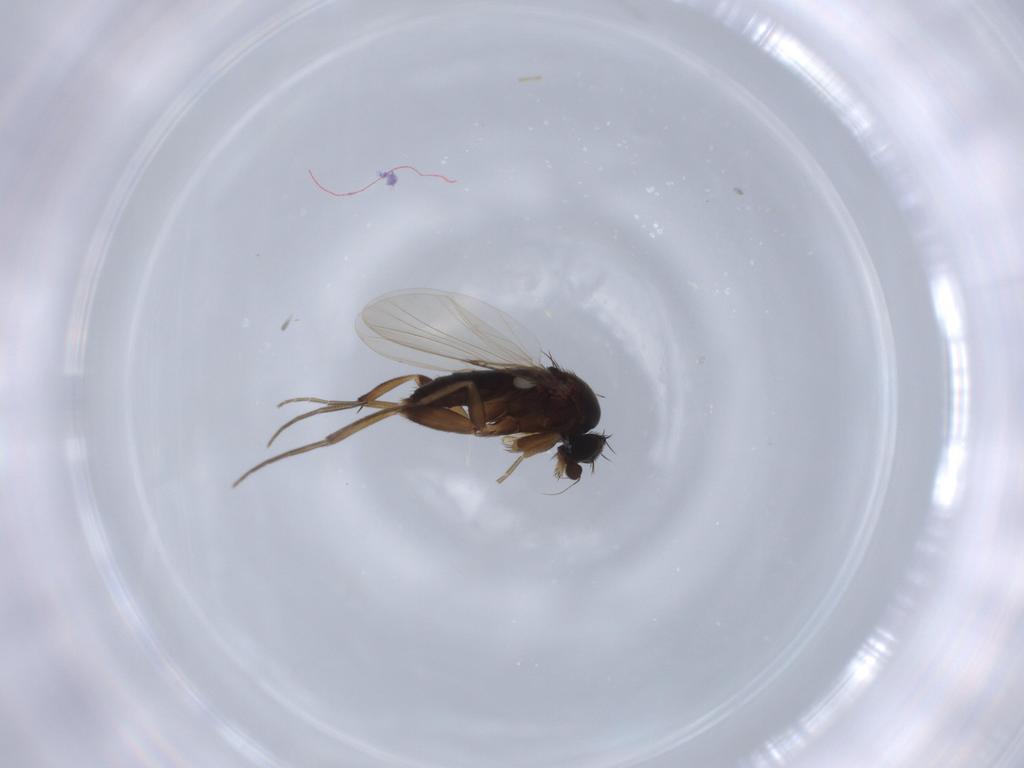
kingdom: Animalia
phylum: Arthropoda
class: Insecta
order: Diptera
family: Phoridae
